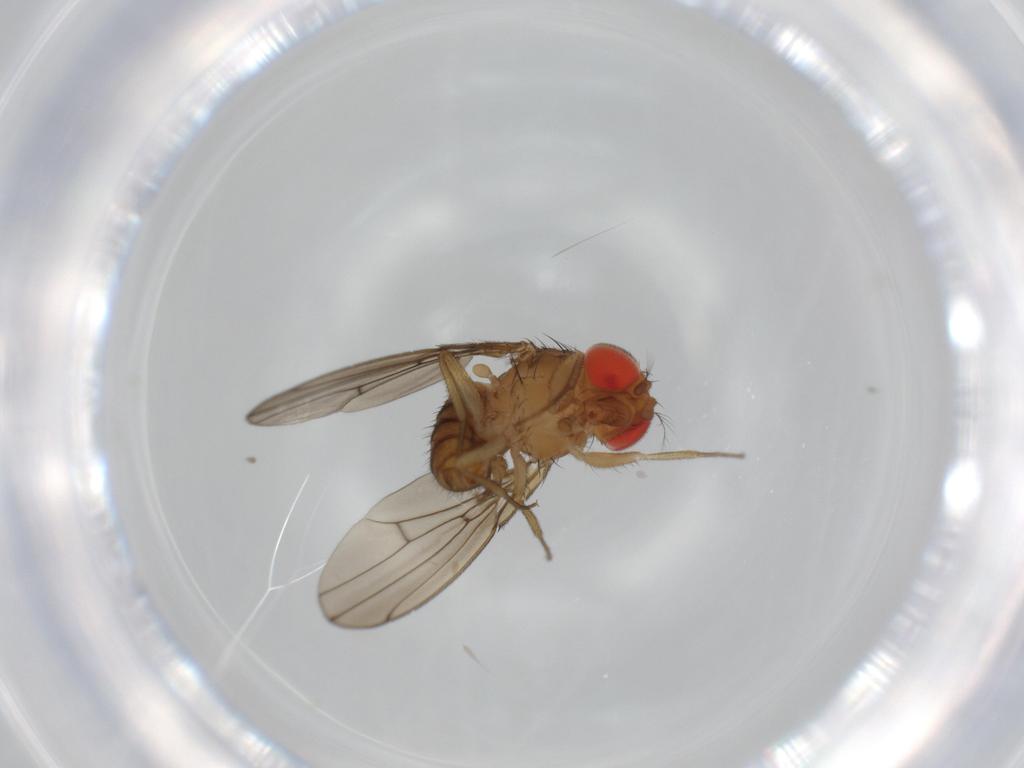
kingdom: Animalia
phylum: Arthropoda
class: Insecta
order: Diptera
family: Drosophilidae
